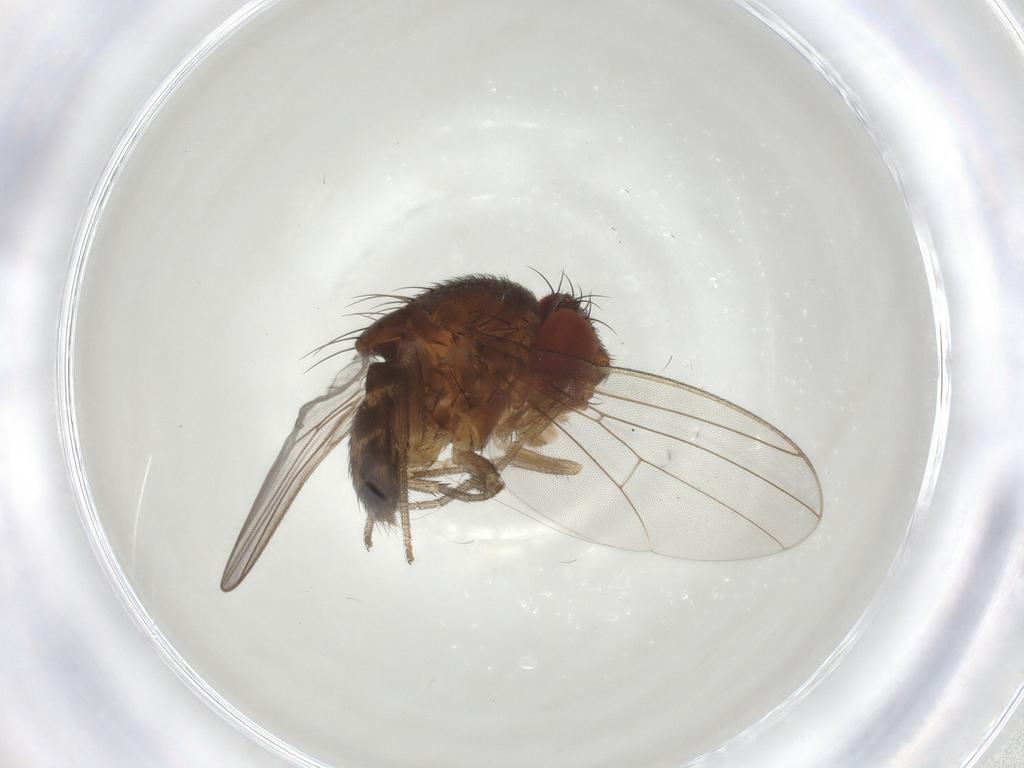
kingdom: Animalia
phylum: Arthropoda
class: Insecta
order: Diptera
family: Drosophilidae
